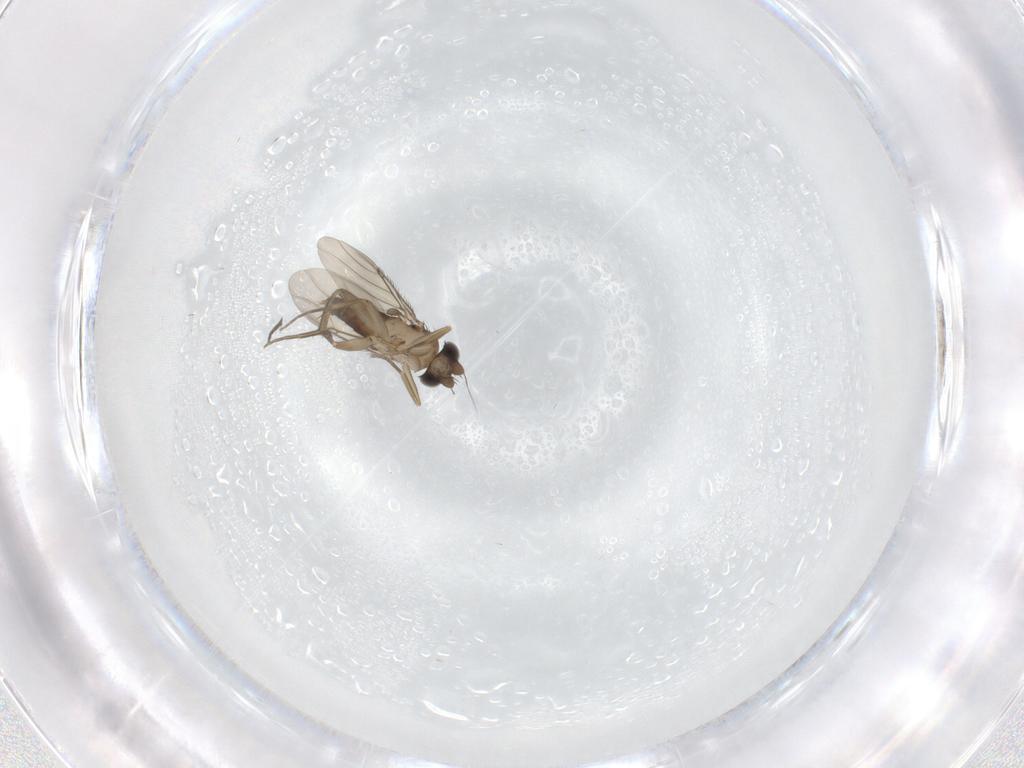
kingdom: Animalia
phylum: Arthropoda
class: Insecta
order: Diptera
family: Phoridae
